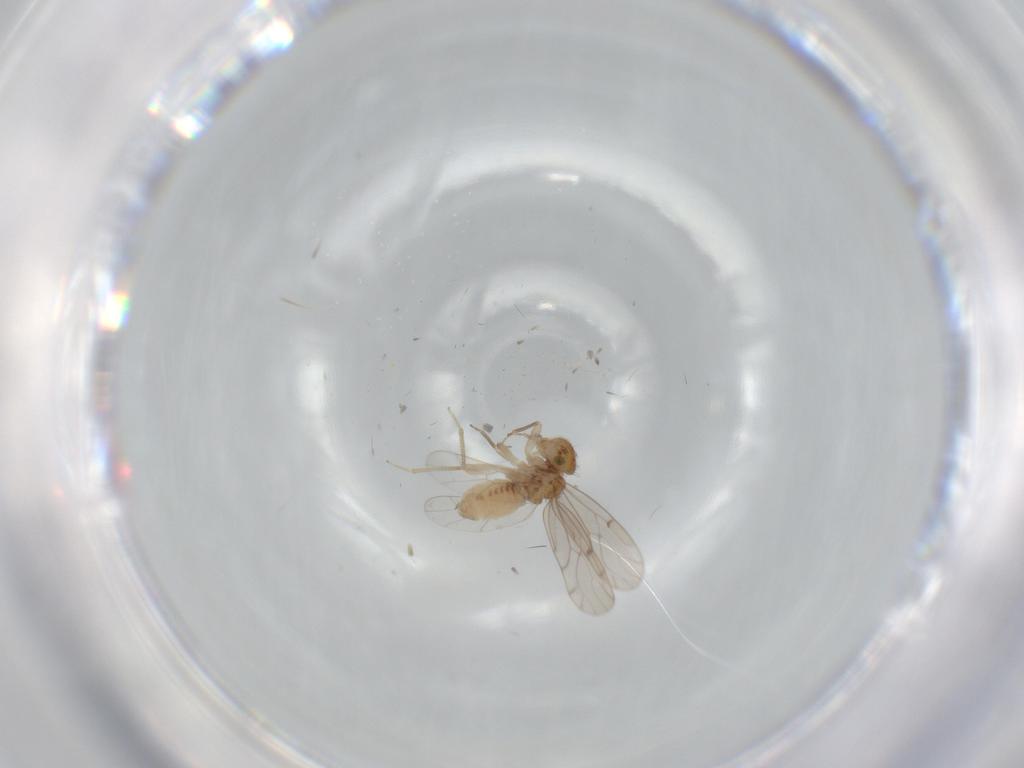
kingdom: Animalia
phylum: Arthropoda
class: Insecta
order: Psocodea
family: Ectopsocidae
